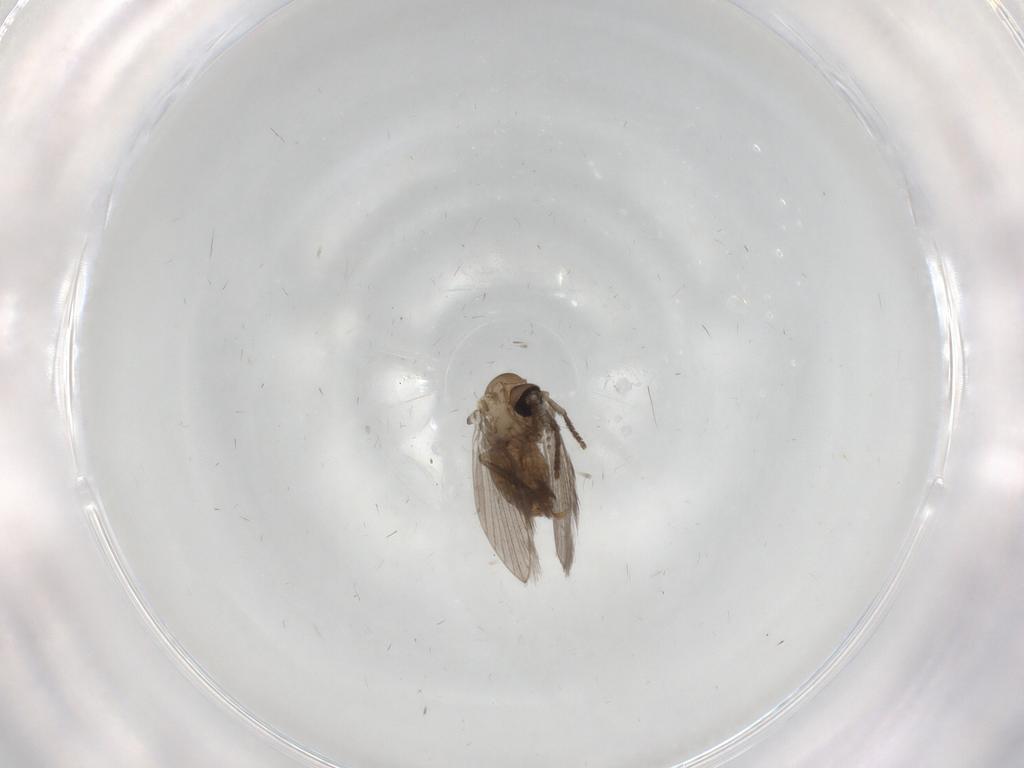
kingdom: Animalia
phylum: Arthropoda
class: Insecta
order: Diptera
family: Psychodidae
